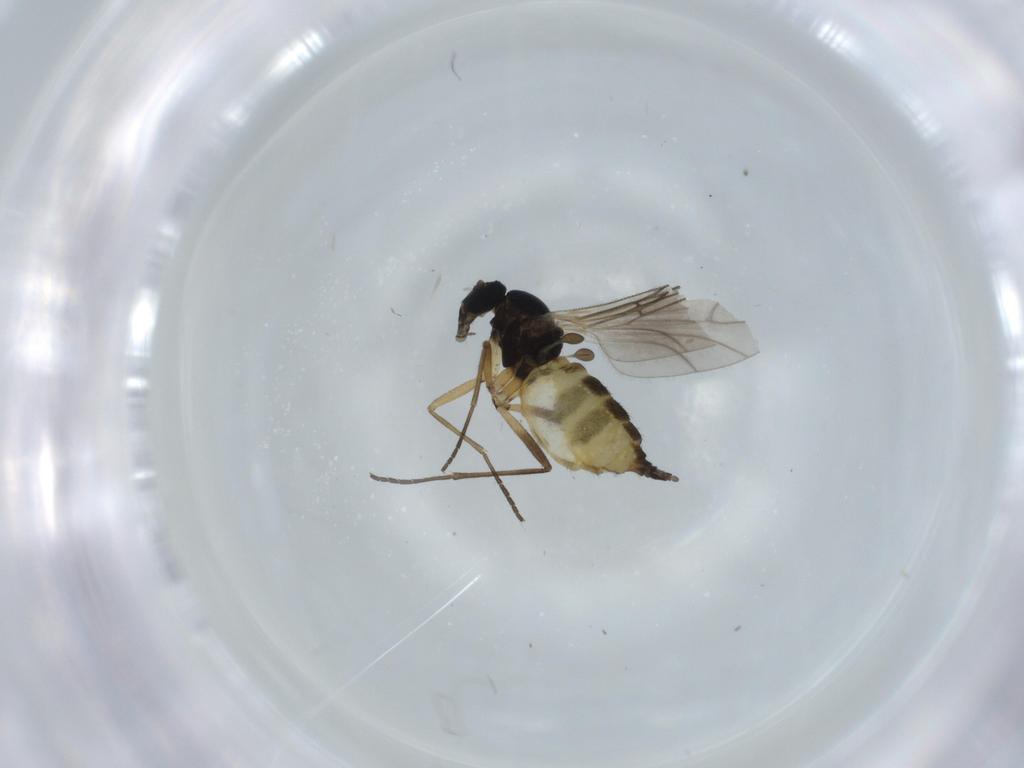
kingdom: Animalia
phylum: Arthropoda
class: Insecta
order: Diptera
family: Sciaridae
